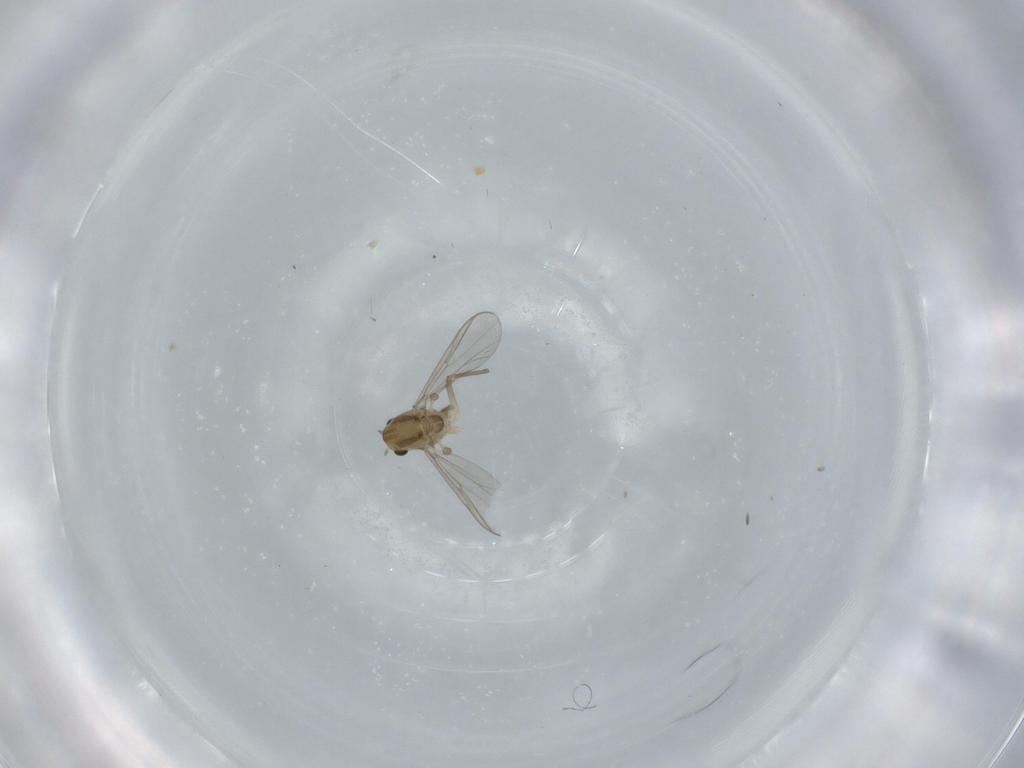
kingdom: Animalia
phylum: Arthropoda
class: Insecta
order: Diptera
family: Chironomidae
